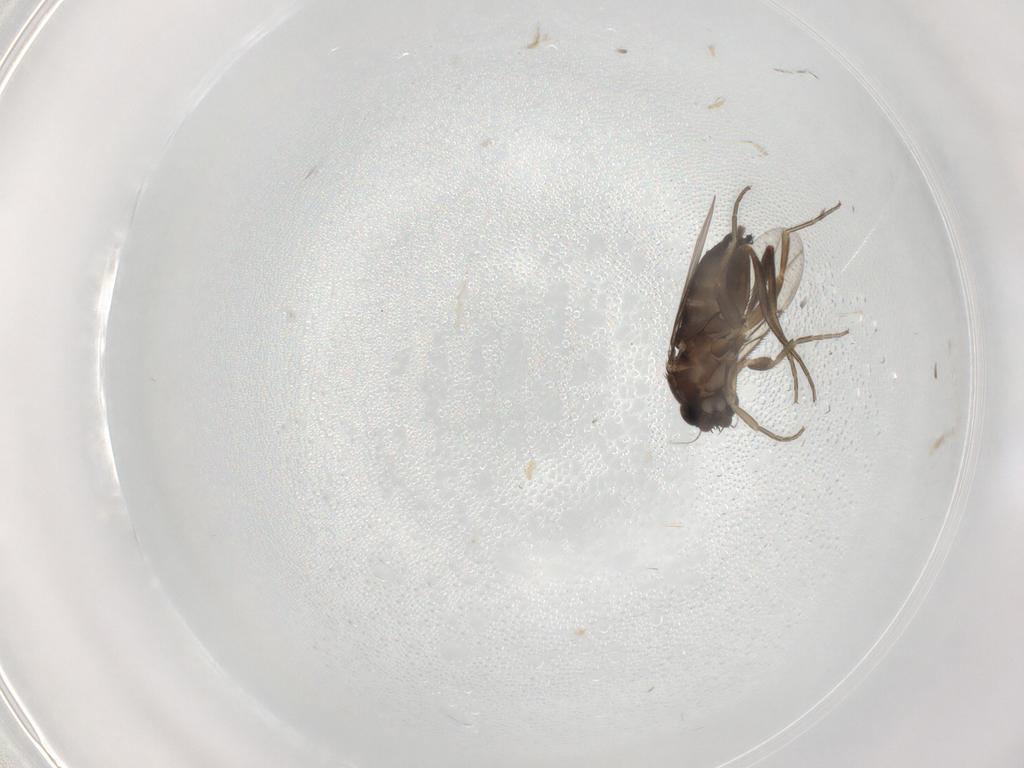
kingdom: Animalia
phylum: Arthropoda
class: Insecta
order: Diptera
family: Phoridae
